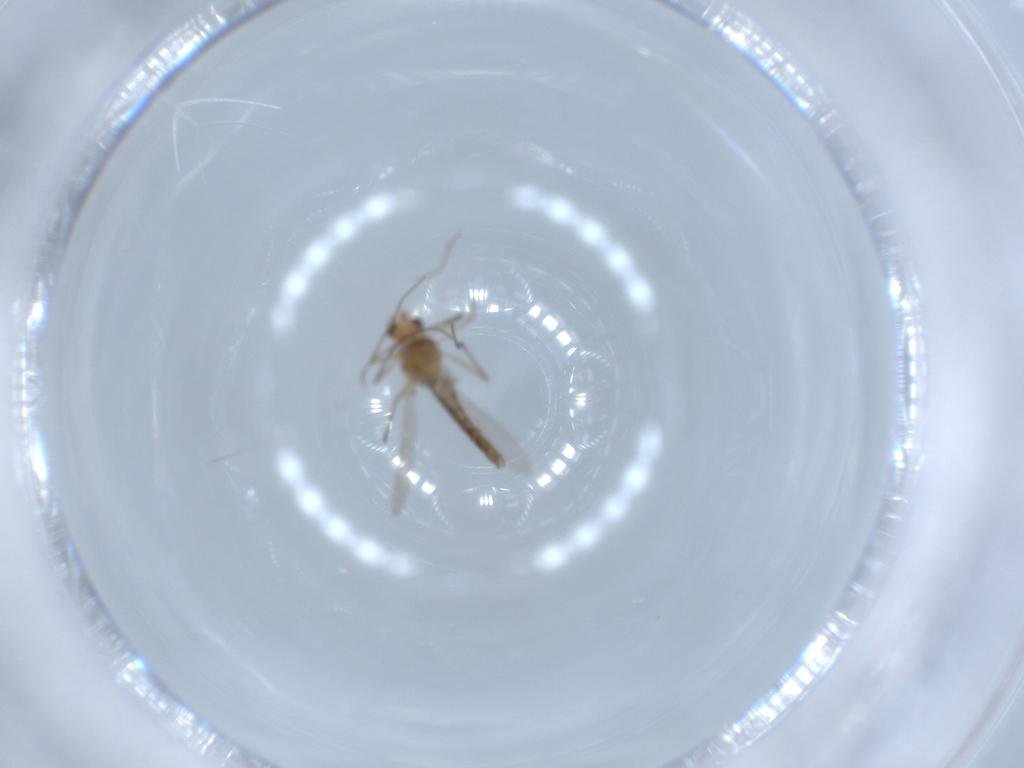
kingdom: Animalia
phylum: Arthropoda
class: Insecta
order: Diptera
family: Chironomidae
